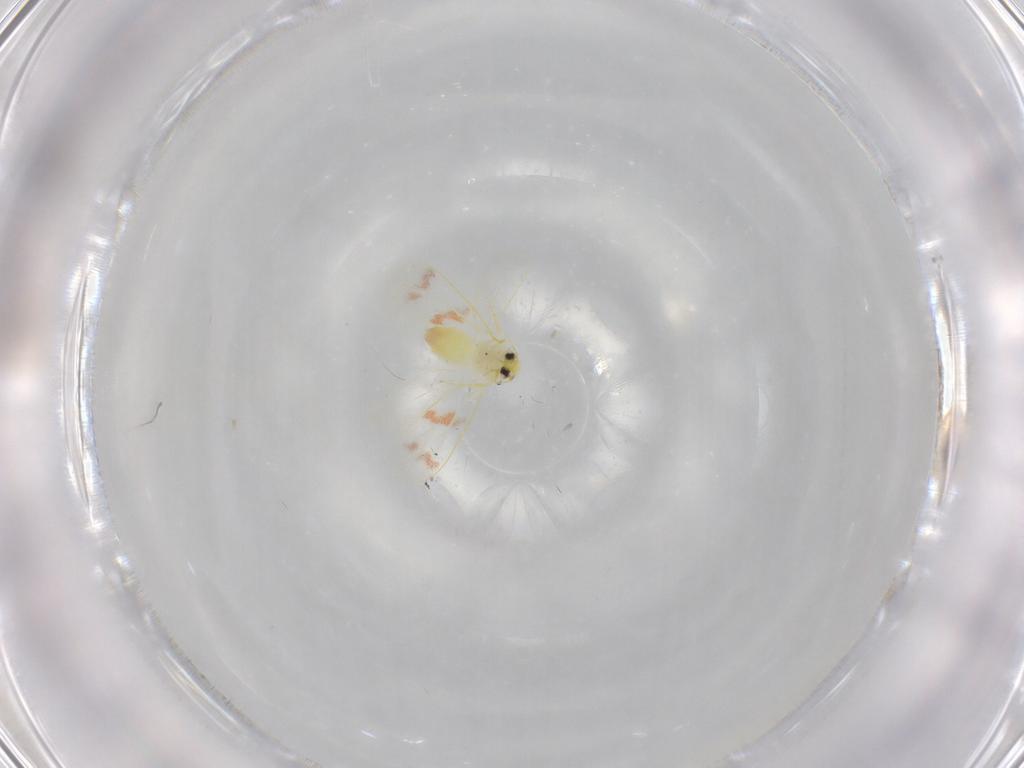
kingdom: Animalia
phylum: Arthropoda
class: Insecta
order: Hemiptera
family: Aleyrodidae
